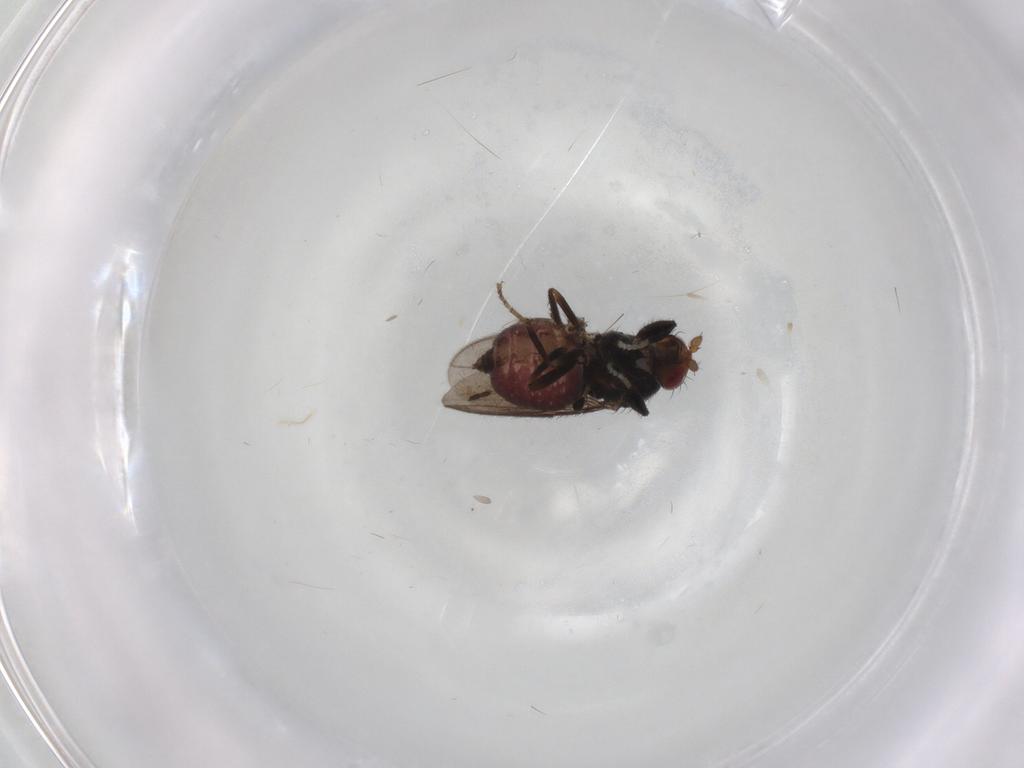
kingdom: Animalia
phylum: Arthropoda
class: Insecta
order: Diptera
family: Sphaeroceridae
